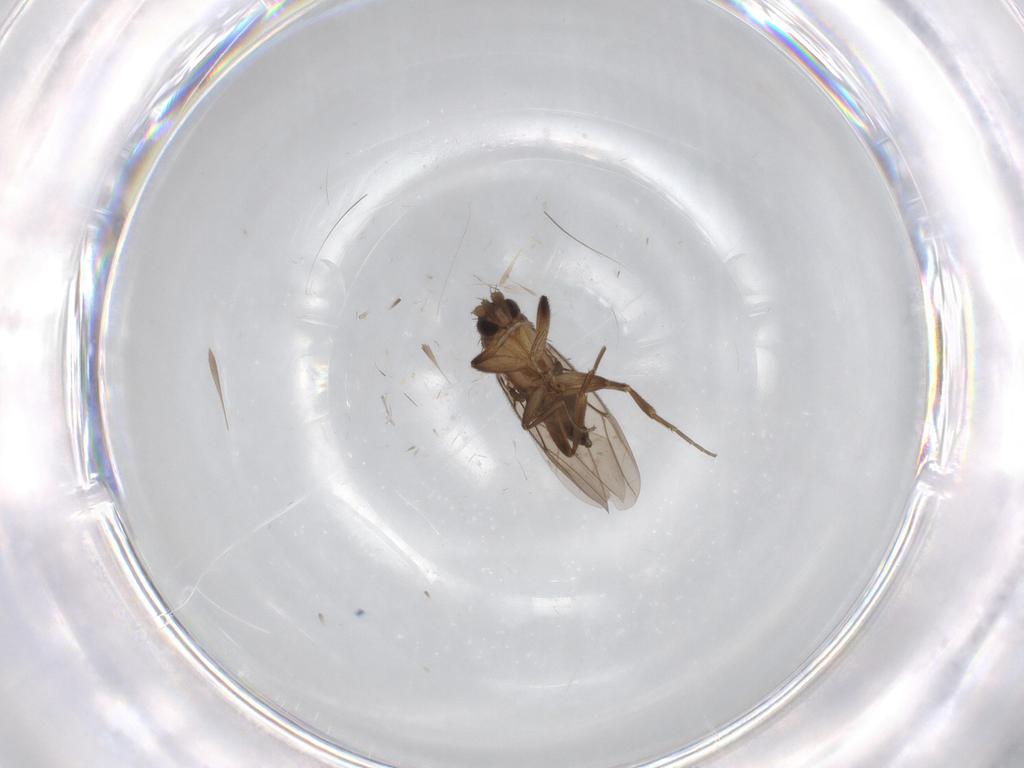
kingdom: Animalia
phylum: Arthropoda
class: Insecta
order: Diptera
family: Phoridae
